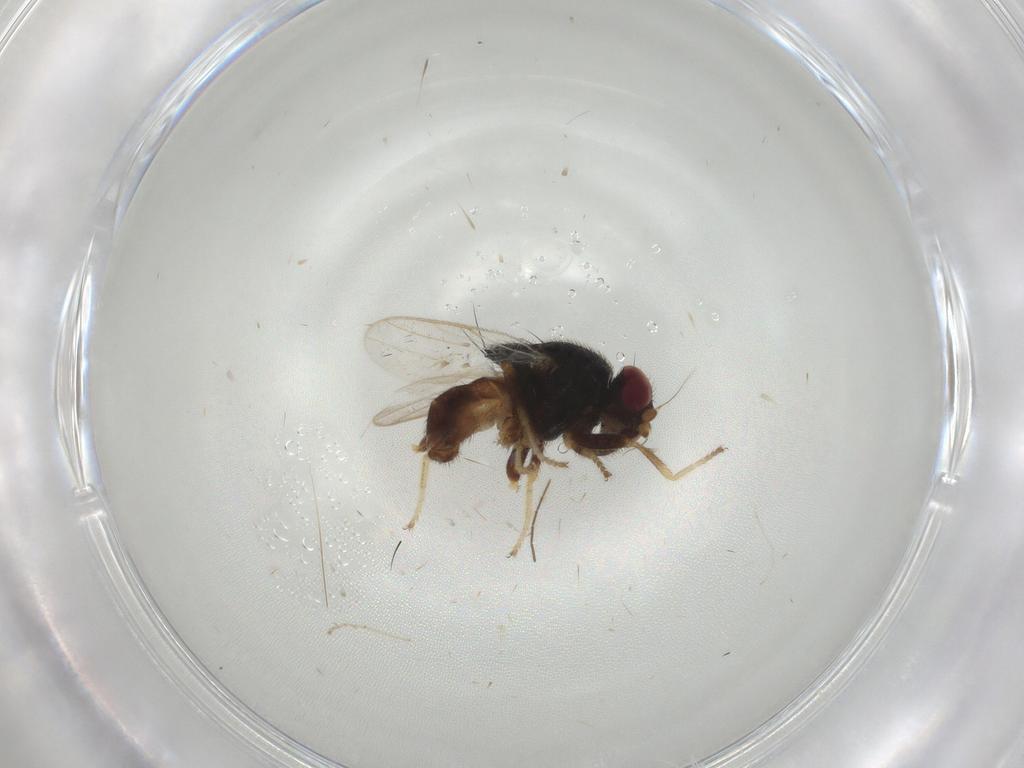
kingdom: Animalia
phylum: Arthropoda
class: Insecta
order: Diptera
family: Chloropidae
